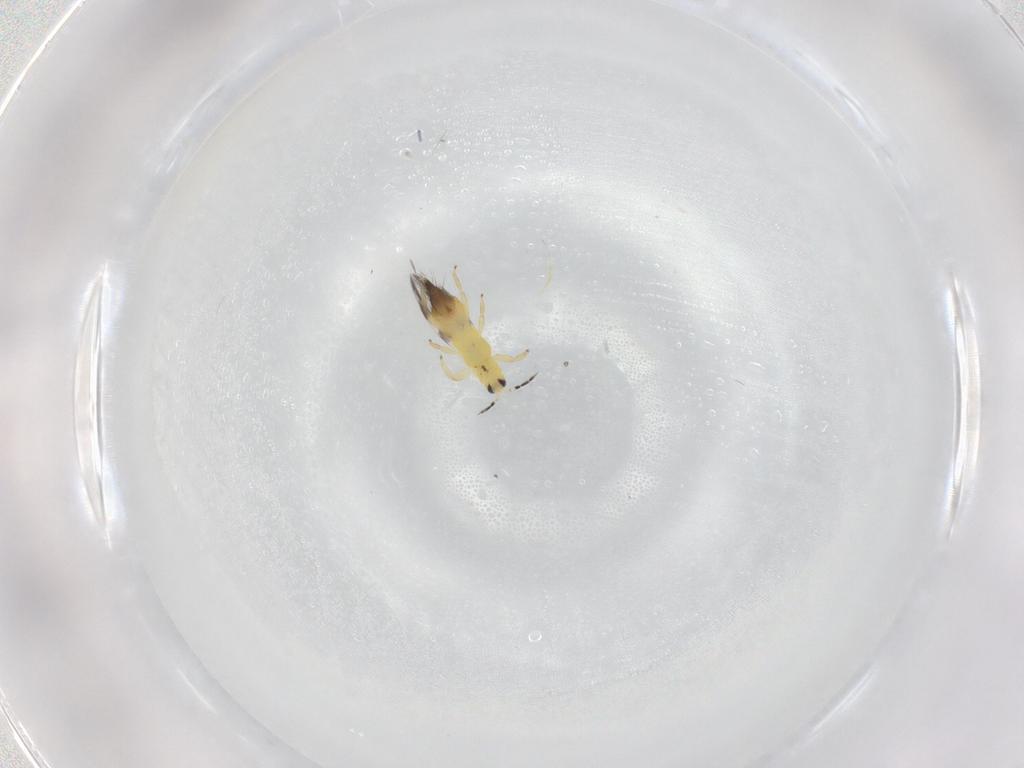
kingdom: Animalia
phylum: Arthropoda
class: Insecta
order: Thysanoptera
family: Aeolothripidae
